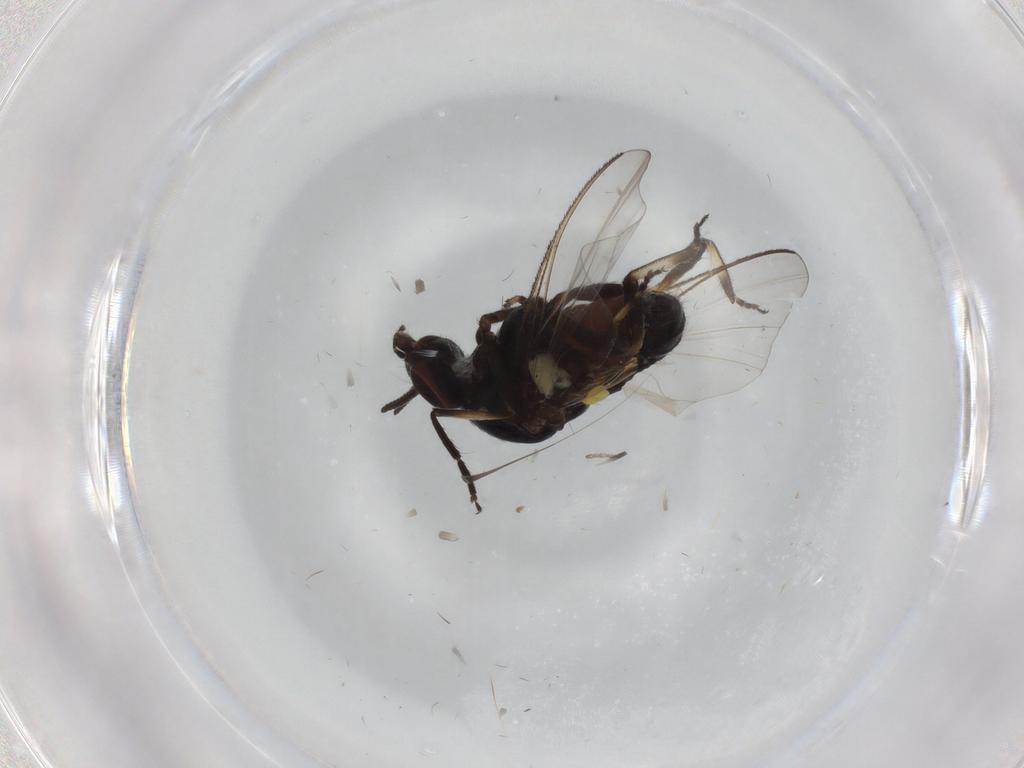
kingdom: Animalia
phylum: Arthropoda
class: Insecta
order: Diptera
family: Chironomidae
